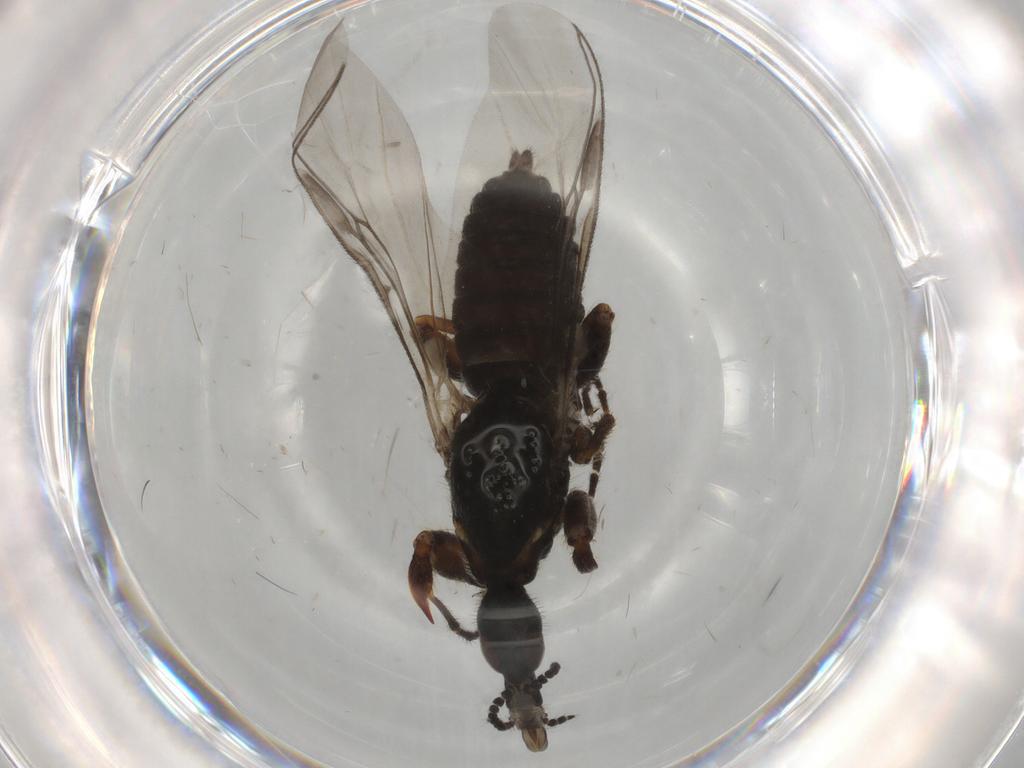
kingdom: Animalia
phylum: Arthropoda
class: Insecta
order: Diptera
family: Bibionidae
